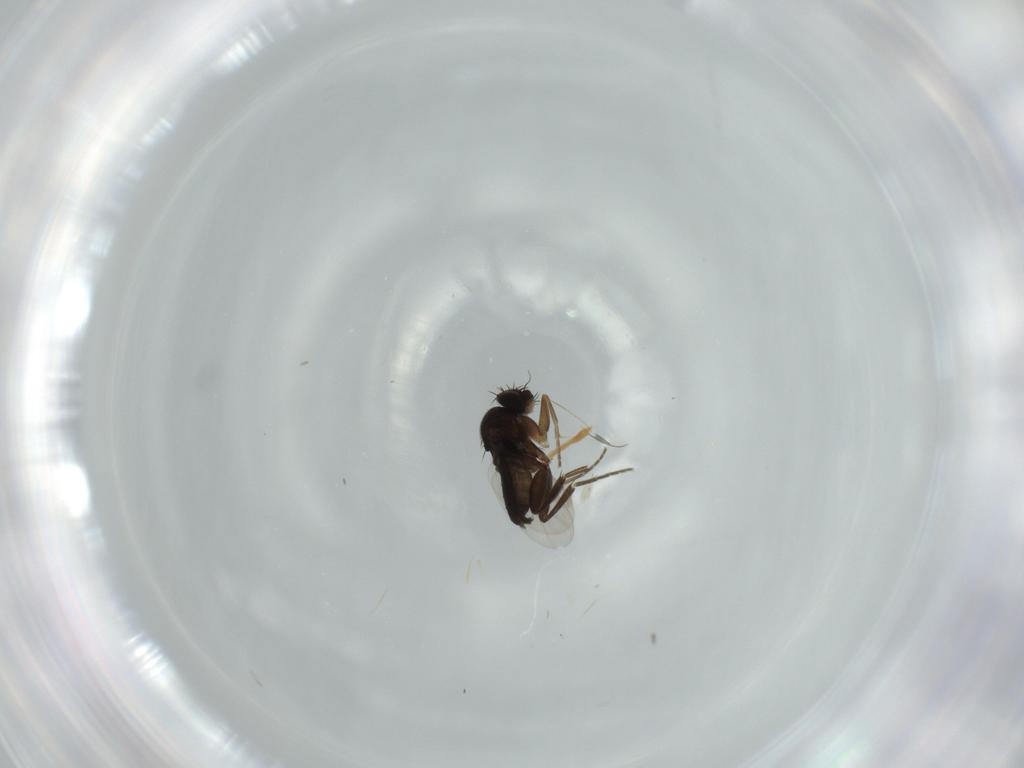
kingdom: Animalia
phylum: Arthropoda
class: Insecta
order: Diptera
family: Phoridae
